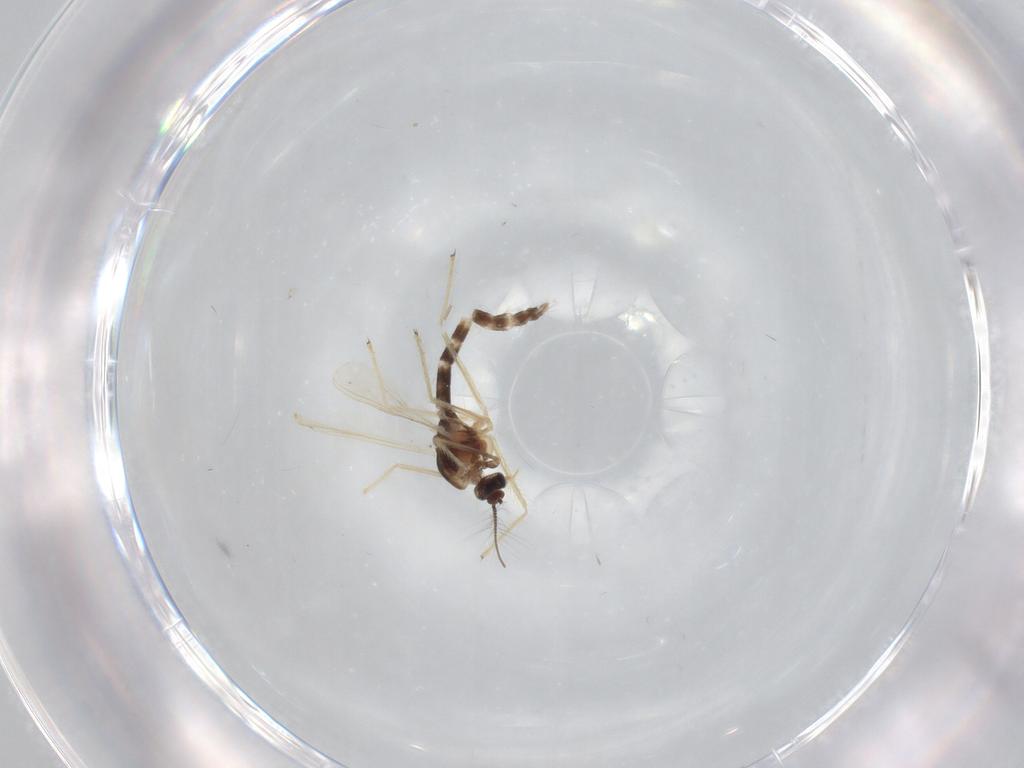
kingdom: Animalia
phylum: Arthropoda
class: Insecta
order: Diptera
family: Chironomidae
